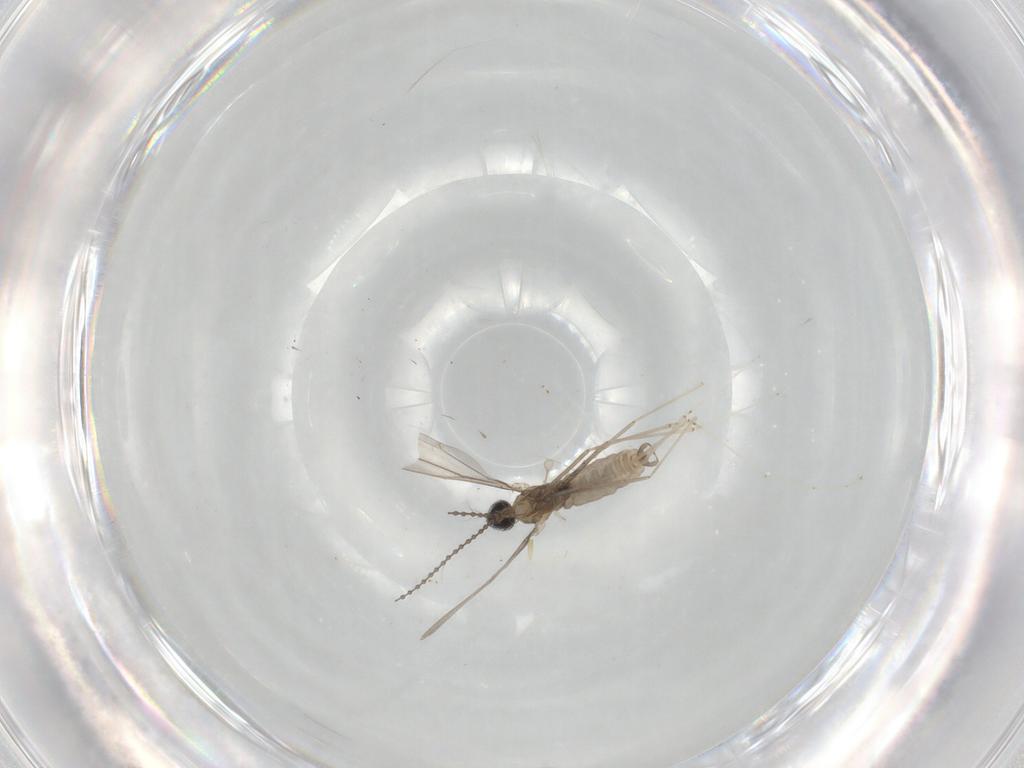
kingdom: Animalia
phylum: Arthropoda
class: Insecta
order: Diptera
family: Cecidomyiidae
